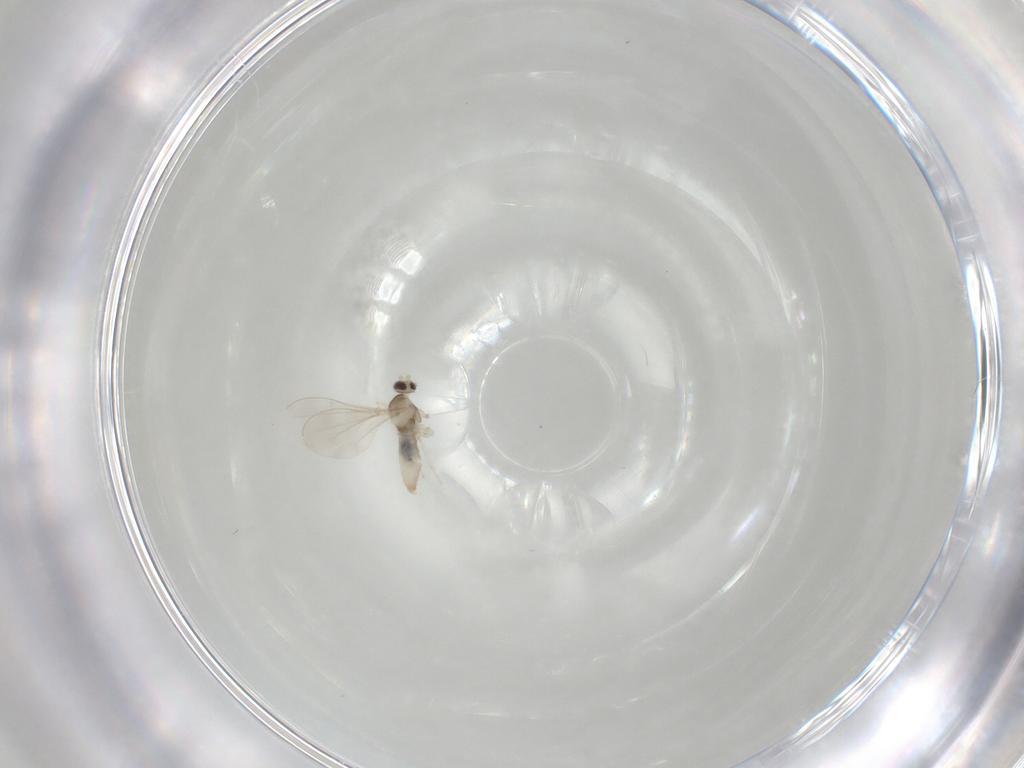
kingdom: Animalia
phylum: Arthropoda
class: Insecta
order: Diptera
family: Cecidomyiidae
